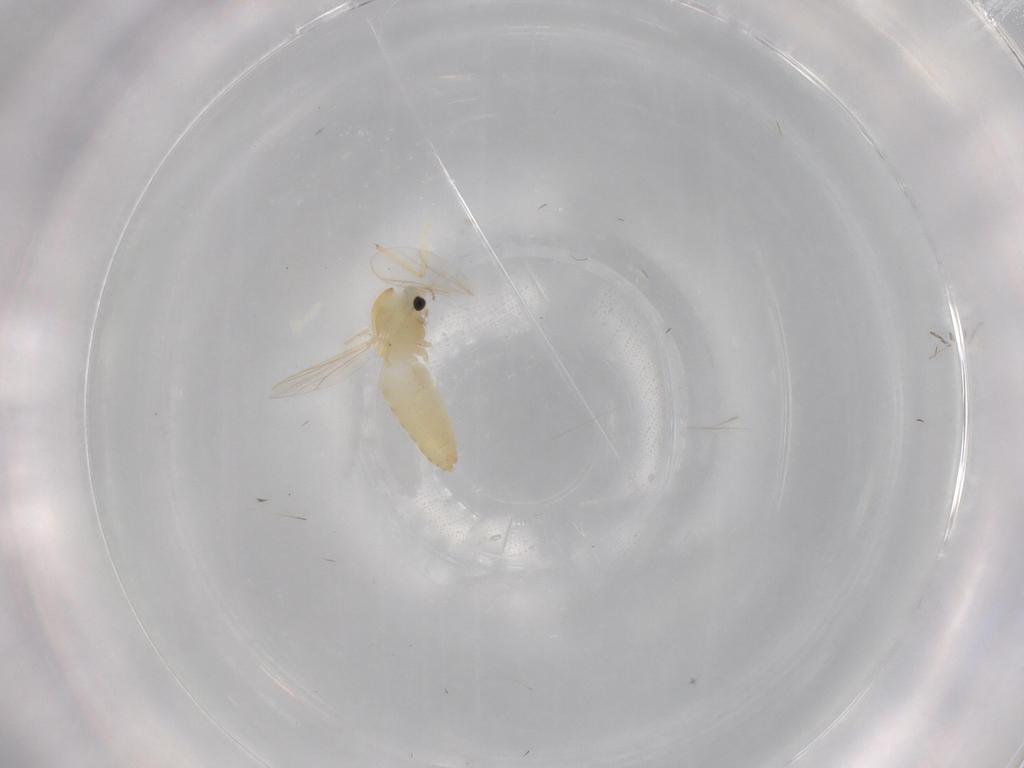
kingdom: Animalia
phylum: Arthropoda
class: Insecta
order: Diptera
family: Chironomidae
